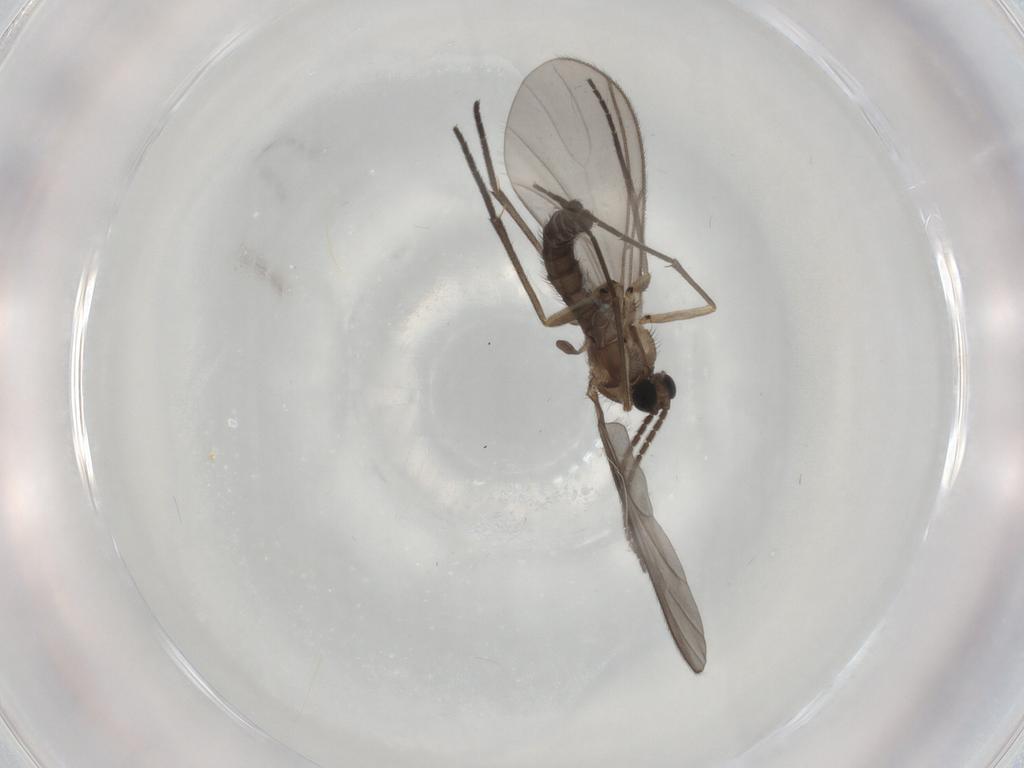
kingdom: Animalia
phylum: Arthropoda
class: Insecta
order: Diptera
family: Sciaridae
